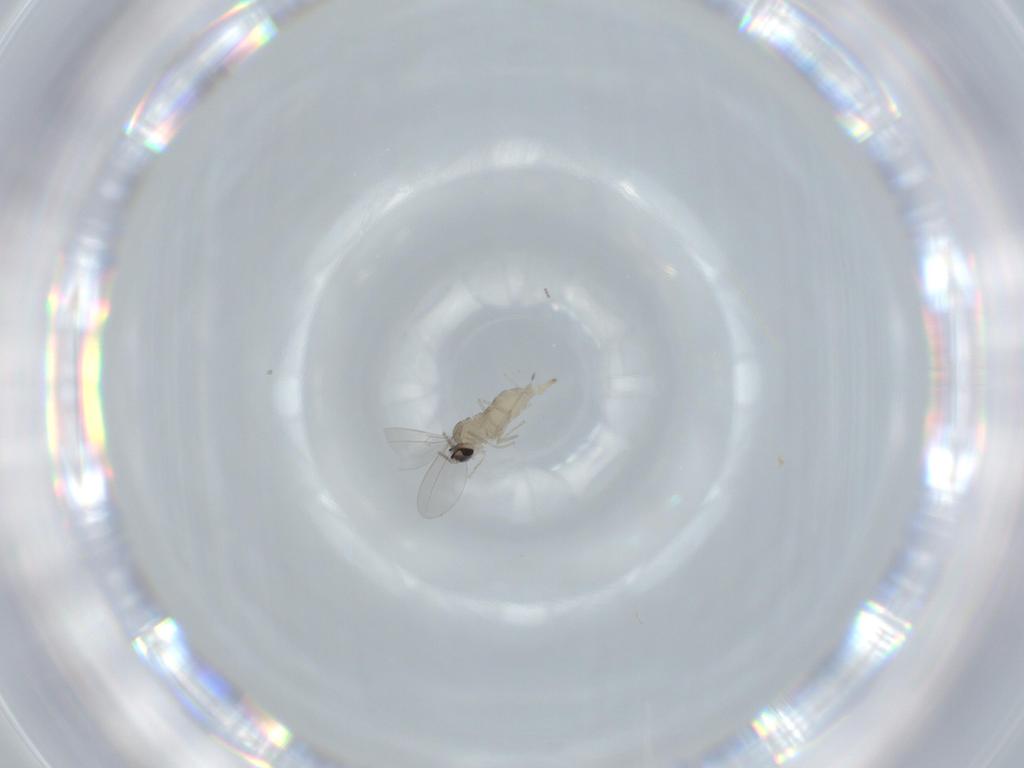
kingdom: Animalia
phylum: Arthropoda
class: Insecta
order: Diptera
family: Cecidomyiidae
